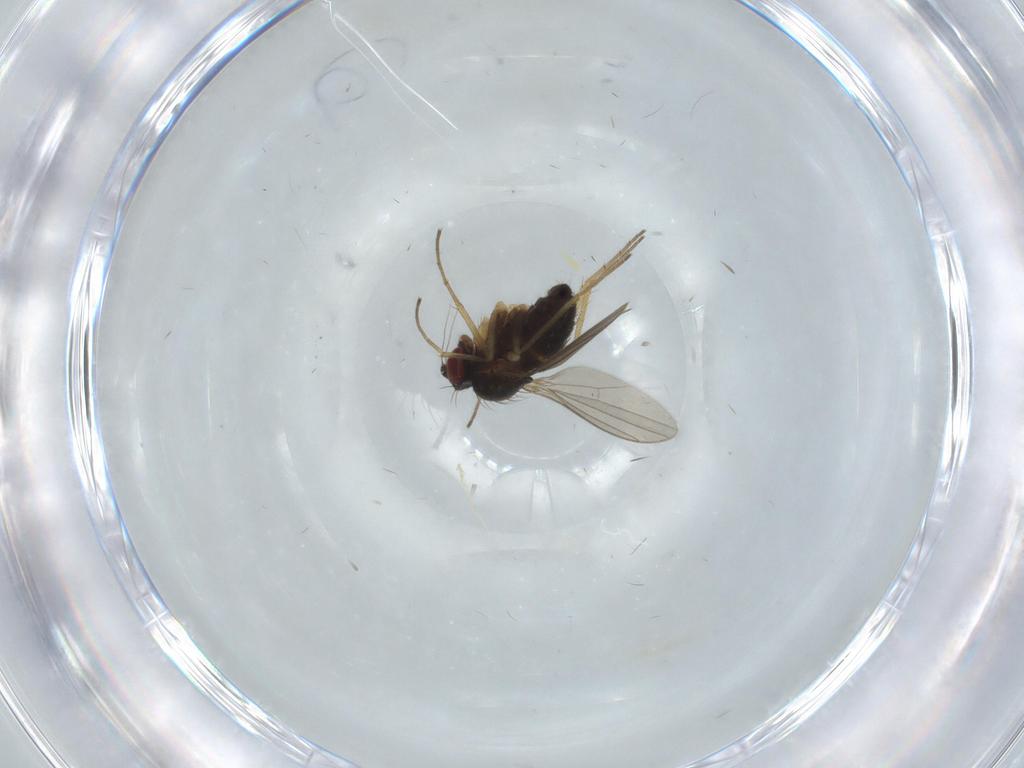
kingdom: Animalia
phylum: Arthropoda
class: Insecta
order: Diptera
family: Dolichopodidae
